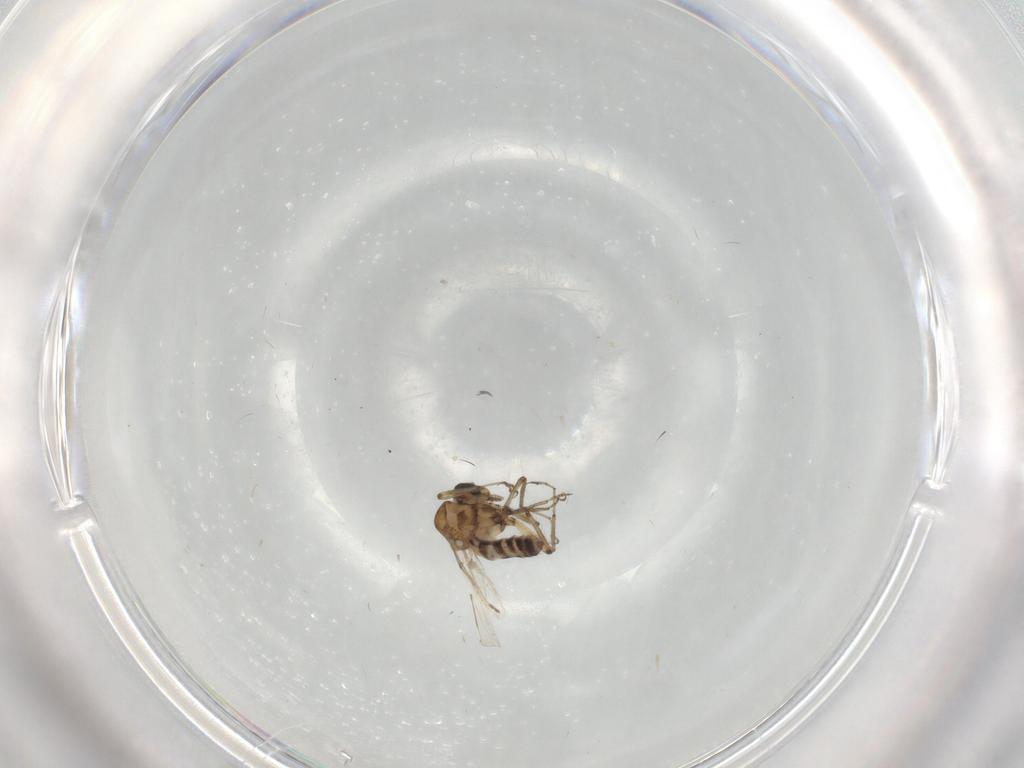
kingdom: Animalia
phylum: Arthropoda
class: Insecta
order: Diptera
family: Ceratopogonidae
